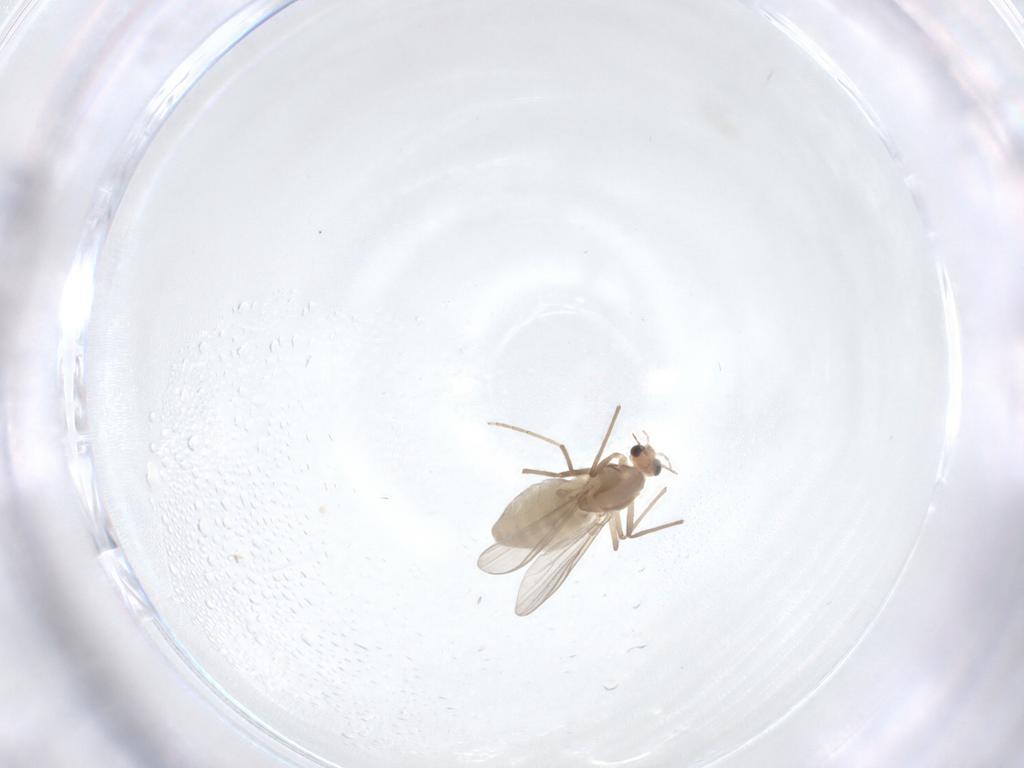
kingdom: Animalia
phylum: Arthropoda
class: Insecta
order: Diptera
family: Chironomidae
